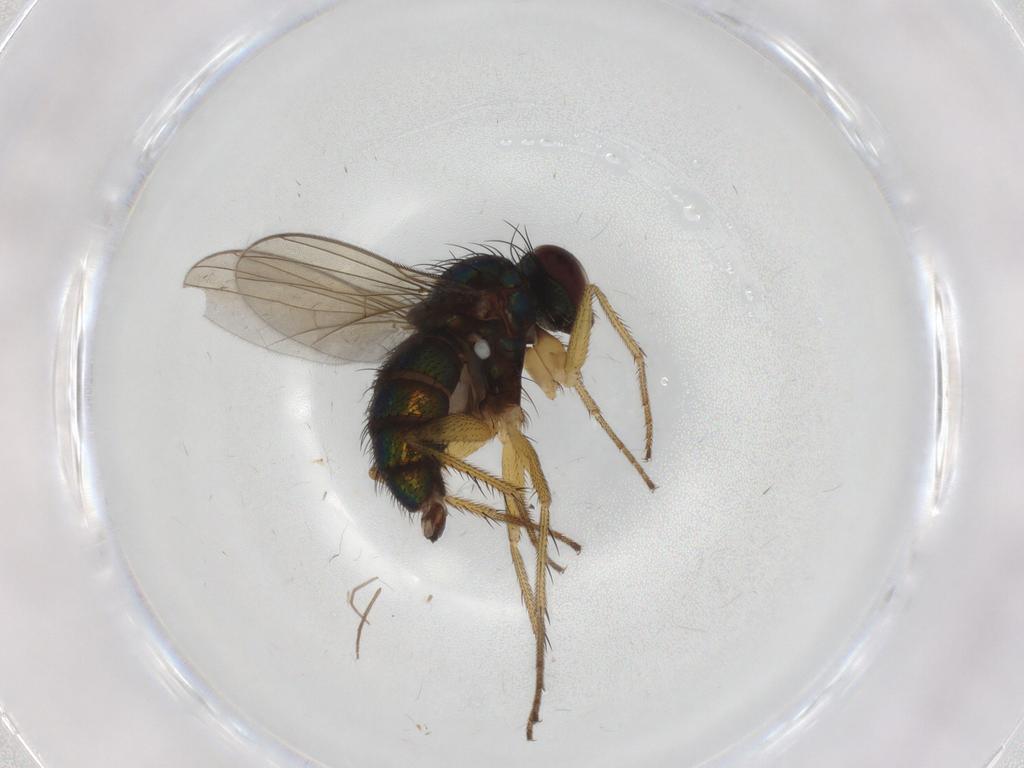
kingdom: Animalia
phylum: Arthropoda
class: Insecta
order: Diptera
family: Dolichopodidae
